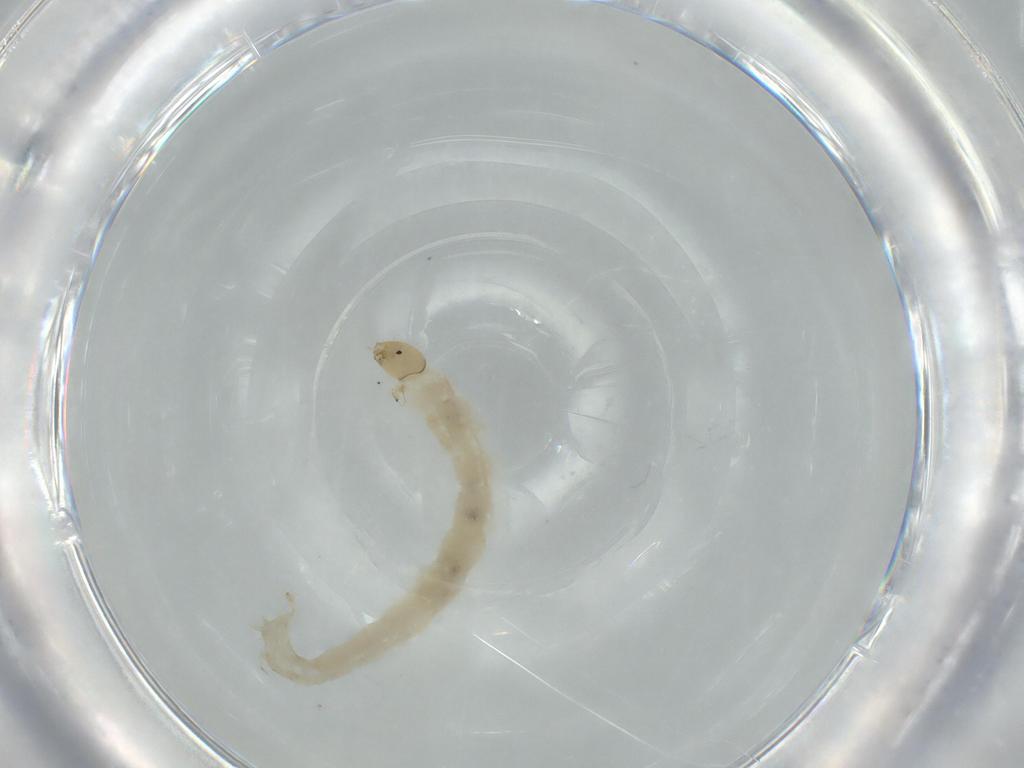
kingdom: Animalia
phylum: Arthropoda
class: Insecta
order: Diptera
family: Chironomidae
